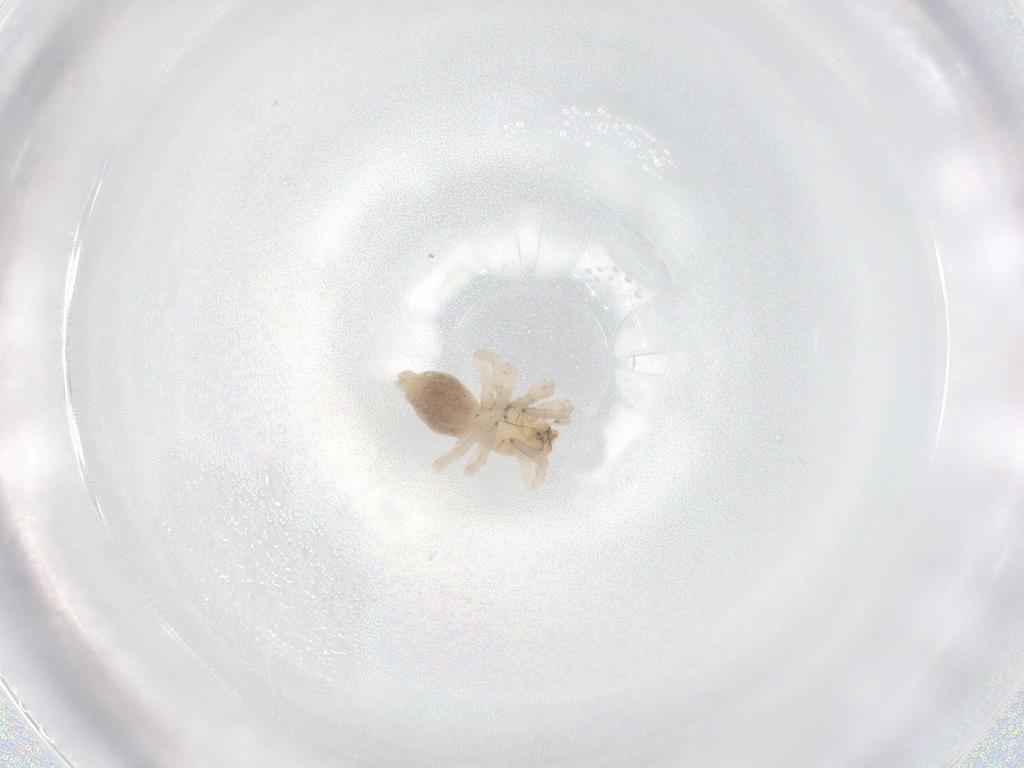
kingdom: Animalia
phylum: Arthropoda
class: Arachnida
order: Araneae
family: Clubionidae
